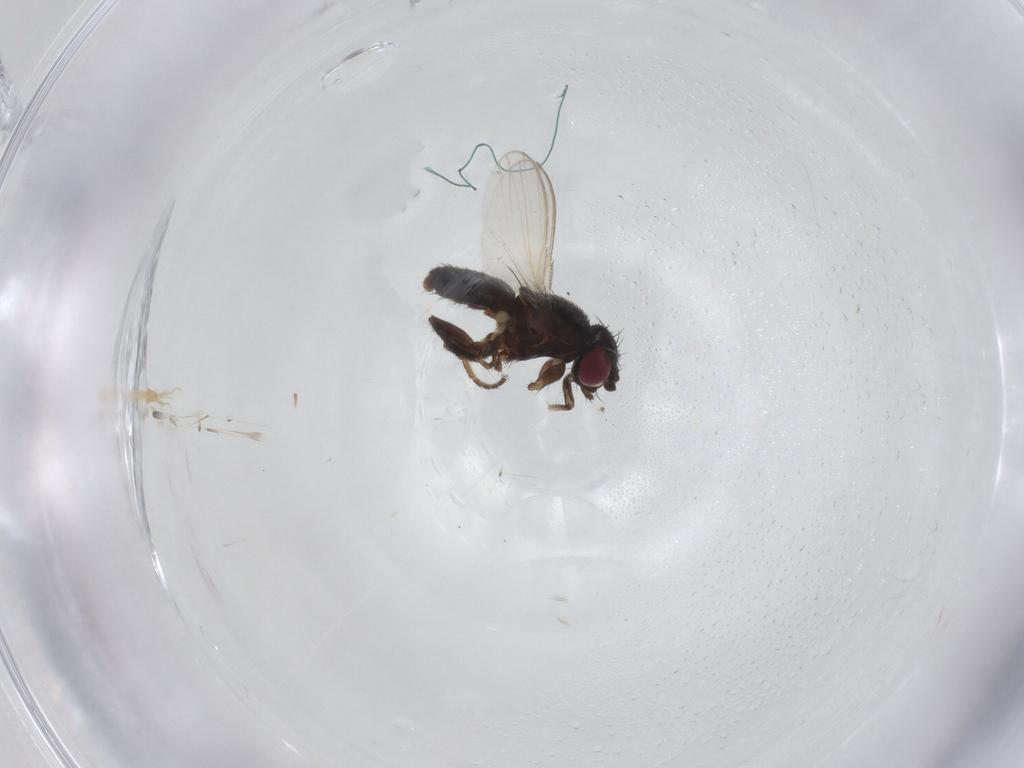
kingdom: Animalia
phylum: Arthropoda
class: Insecta
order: Diptera
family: Milichiidae
